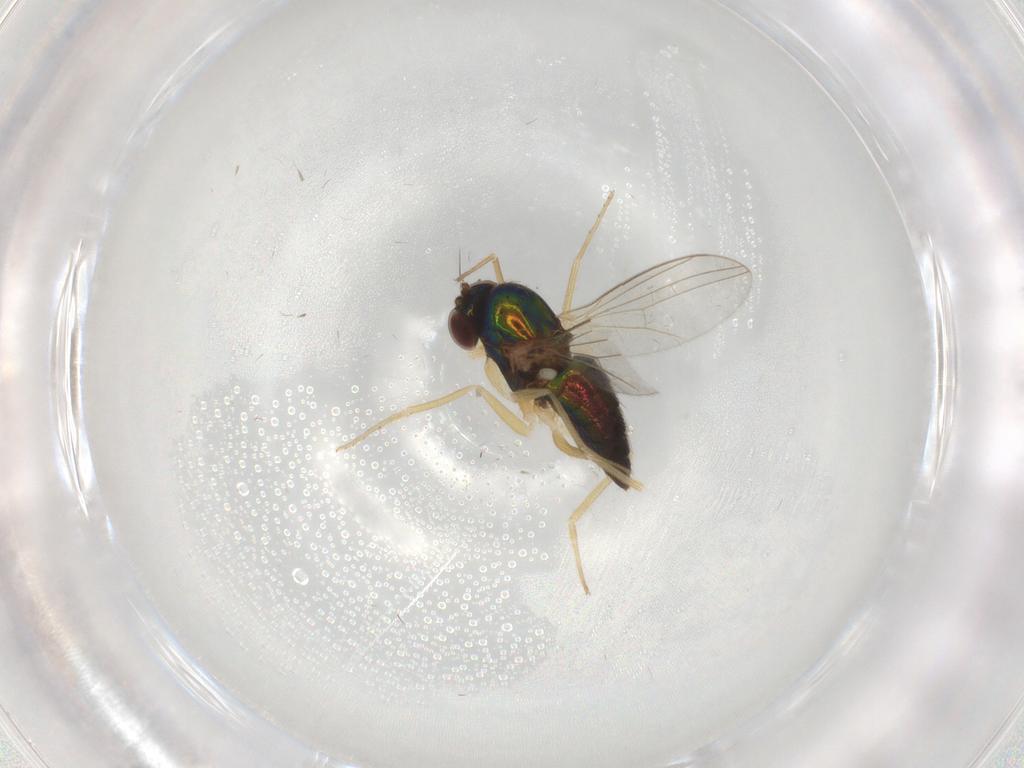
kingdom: Animalia
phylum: Arthropoda
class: Insecta
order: Diptera
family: Dolichopodidae
